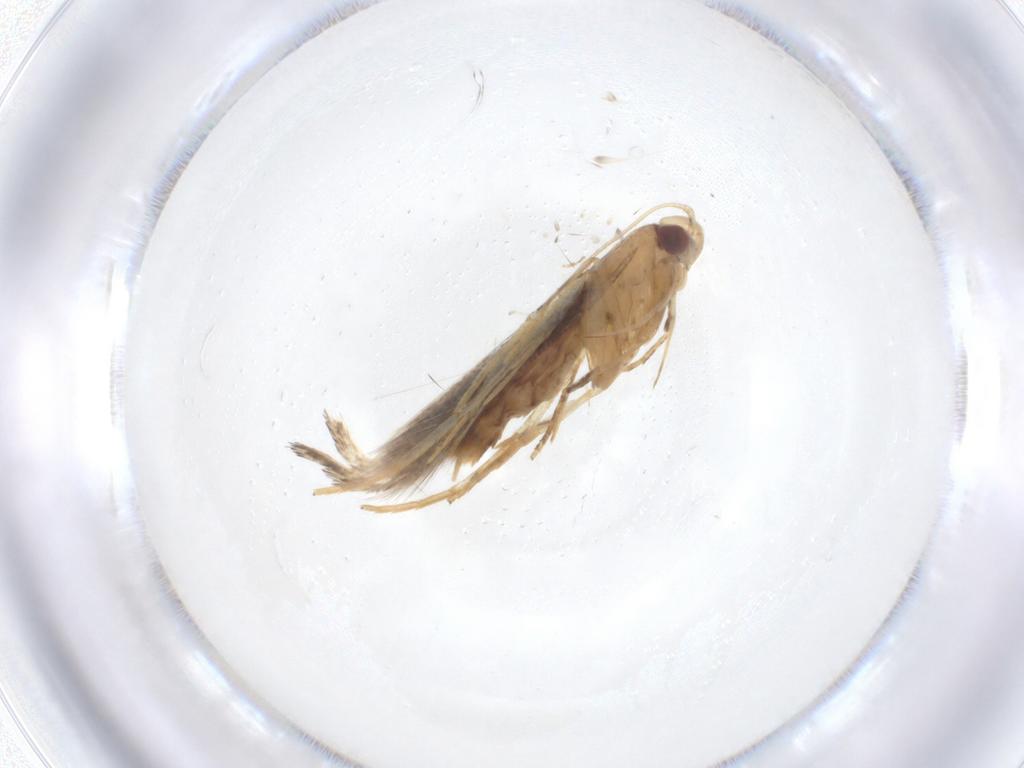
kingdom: Animalia
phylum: Arthropoda
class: Insecta
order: Lepidoptera
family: Cosmopterigidae
